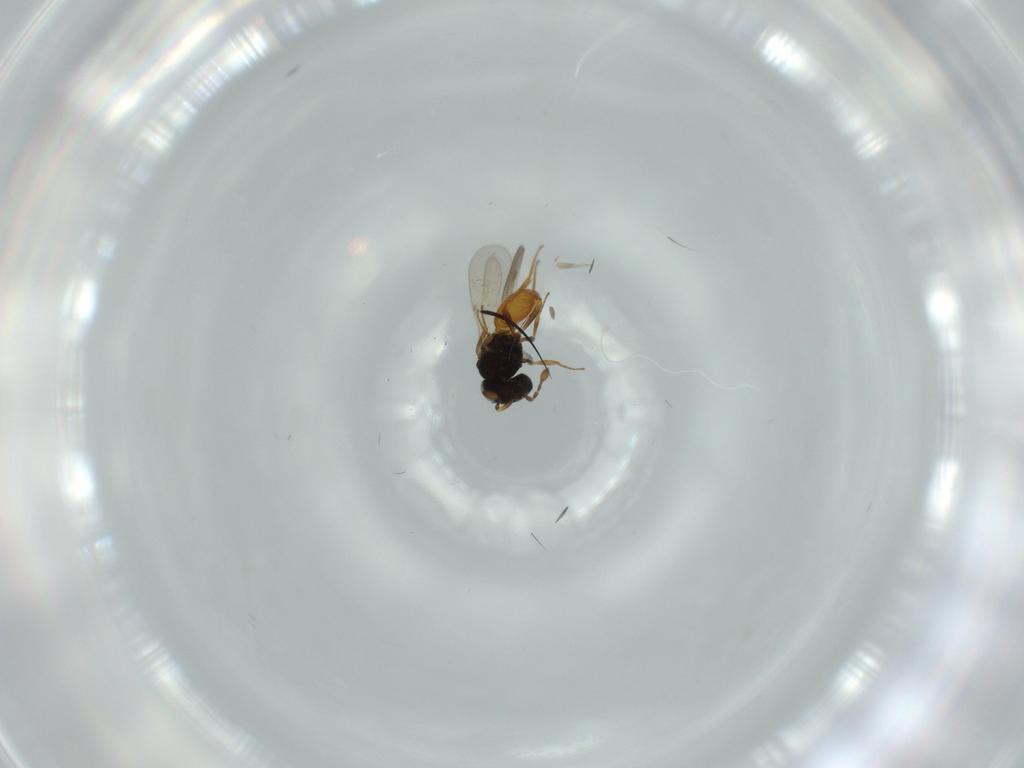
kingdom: Animalia
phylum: Arthropoda
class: Insecta
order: Hymenoptera
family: Scelionidae
